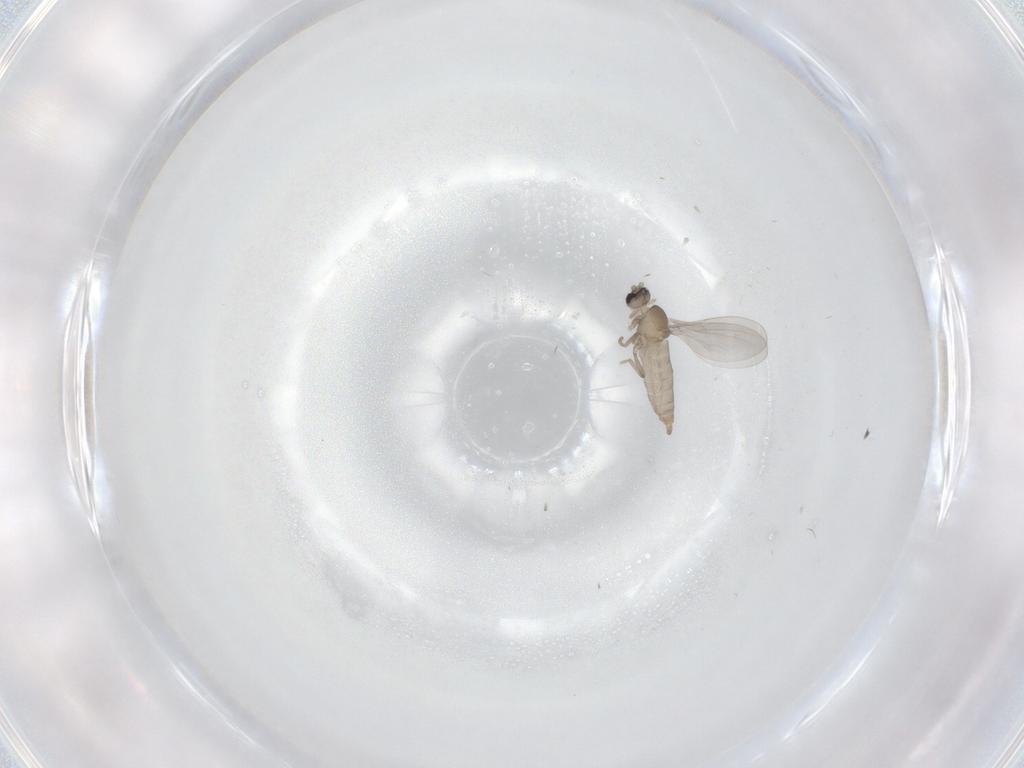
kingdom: Animalia
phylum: Arthropoda
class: Insecta
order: Diptera
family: Cecidomyiidae
